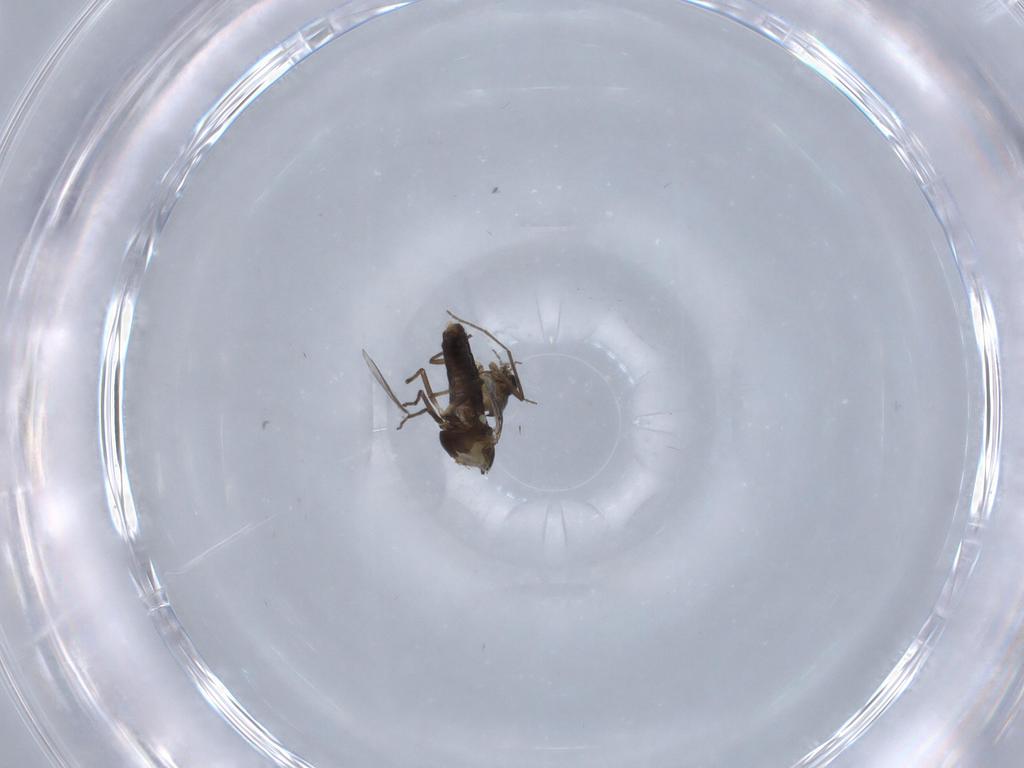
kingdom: Animalia
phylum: Arthropoda
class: Insecta
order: Diptera
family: Chironomidae
